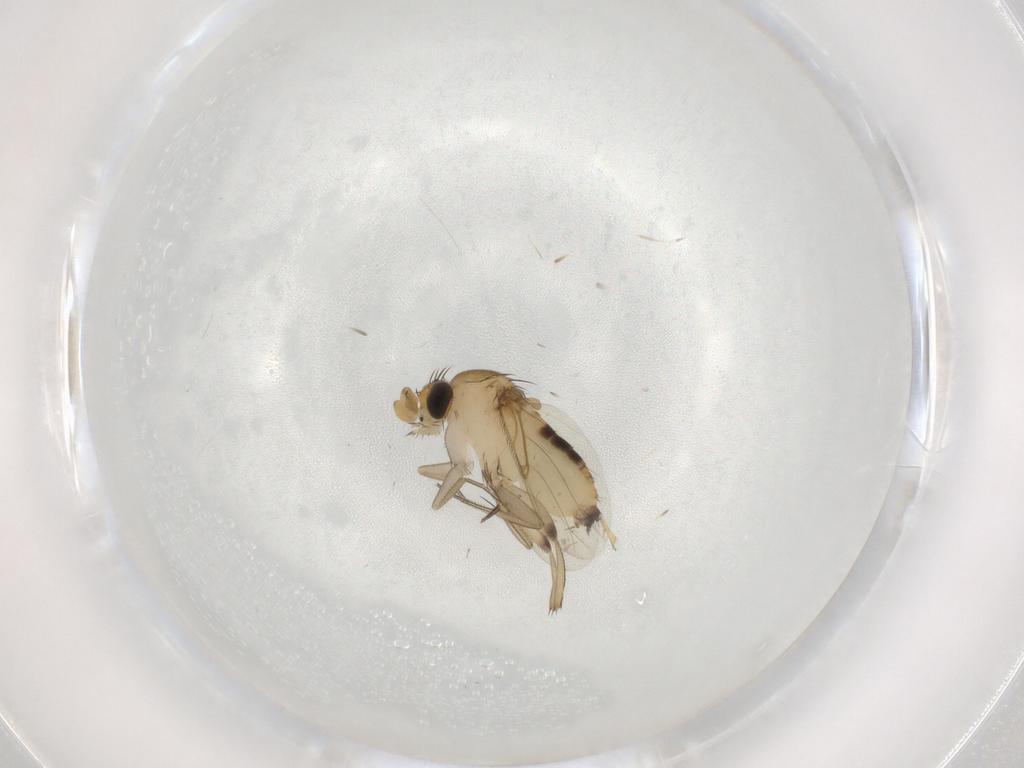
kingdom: Animalia
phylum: Arthropoda
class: Insecta
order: Diptera
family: Phoridae
